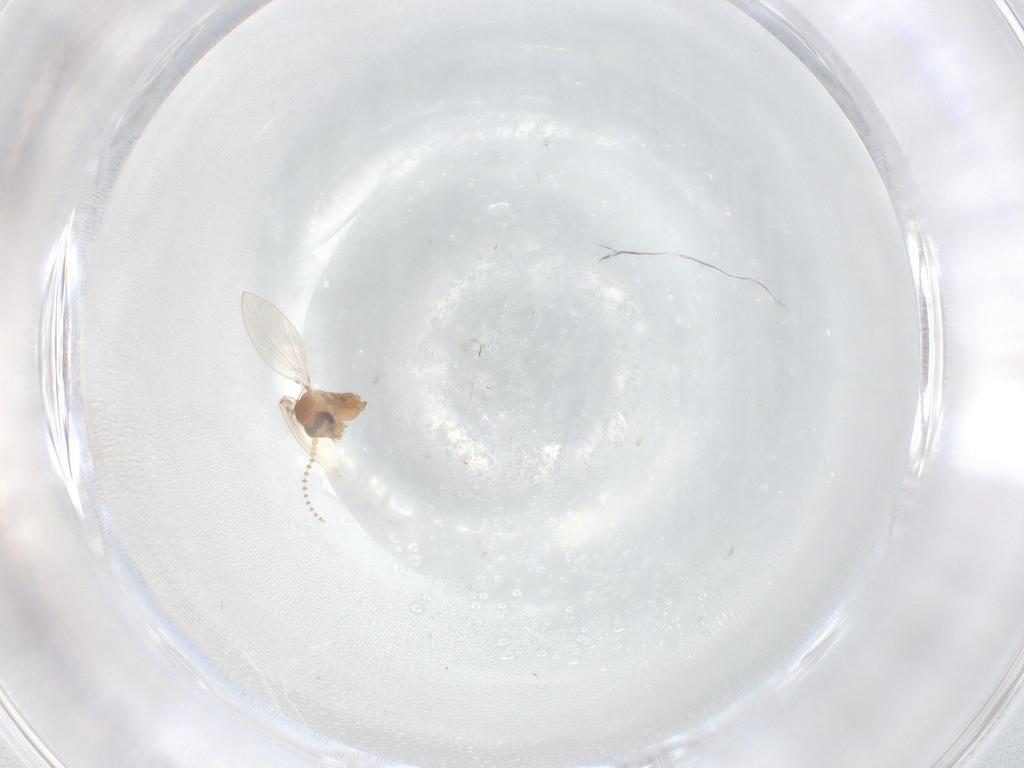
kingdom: Animalia
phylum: Arthropoda
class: Insecta
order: Diptera
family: Psychodidae
